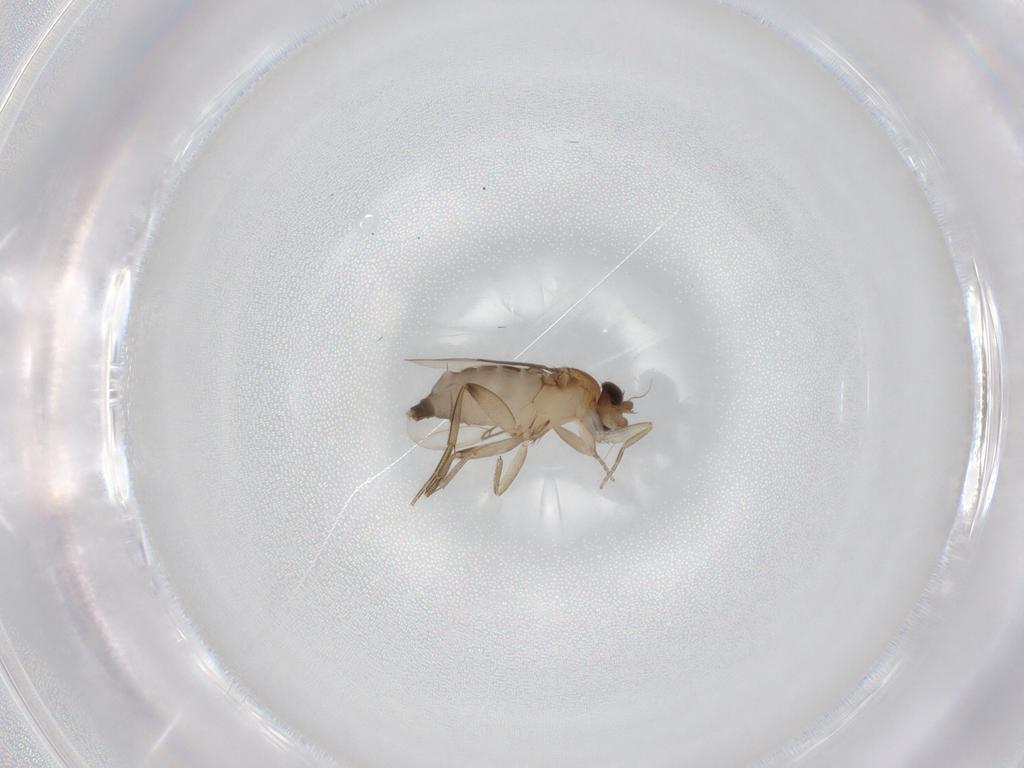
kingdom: Animalia
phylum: Arthropoda
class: Insecta
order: Diptera
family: Phoridae
